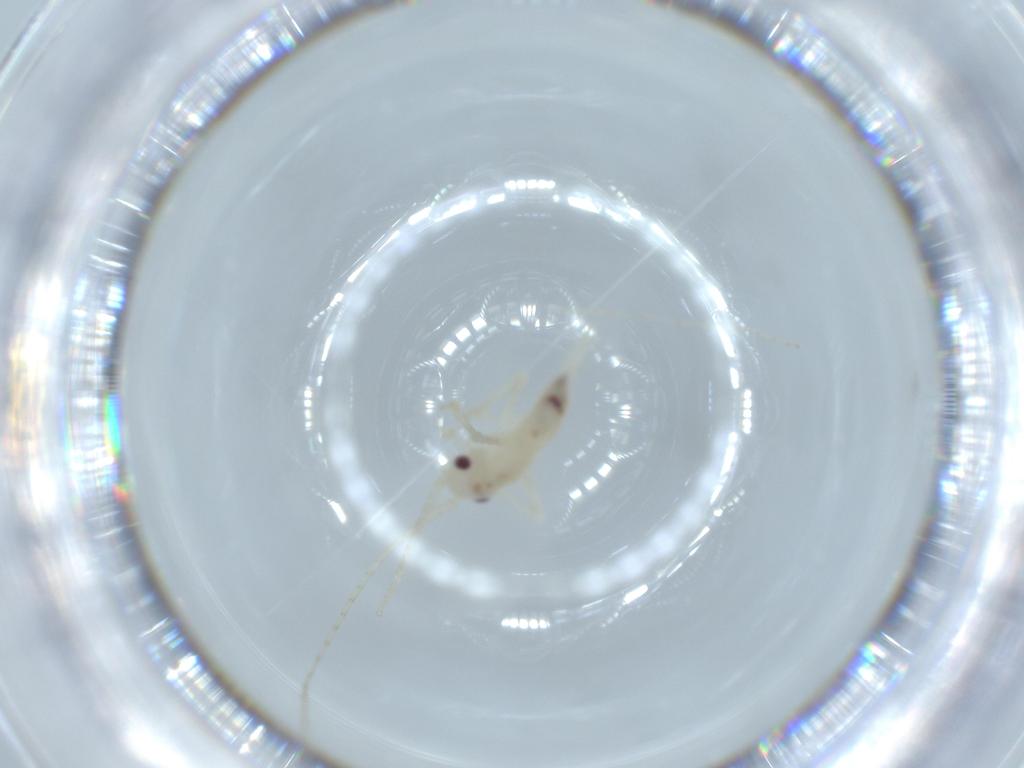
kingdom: Animalia
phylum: Arthropoda
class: Insecta
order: Orthoptera
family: Trigonidiidae
